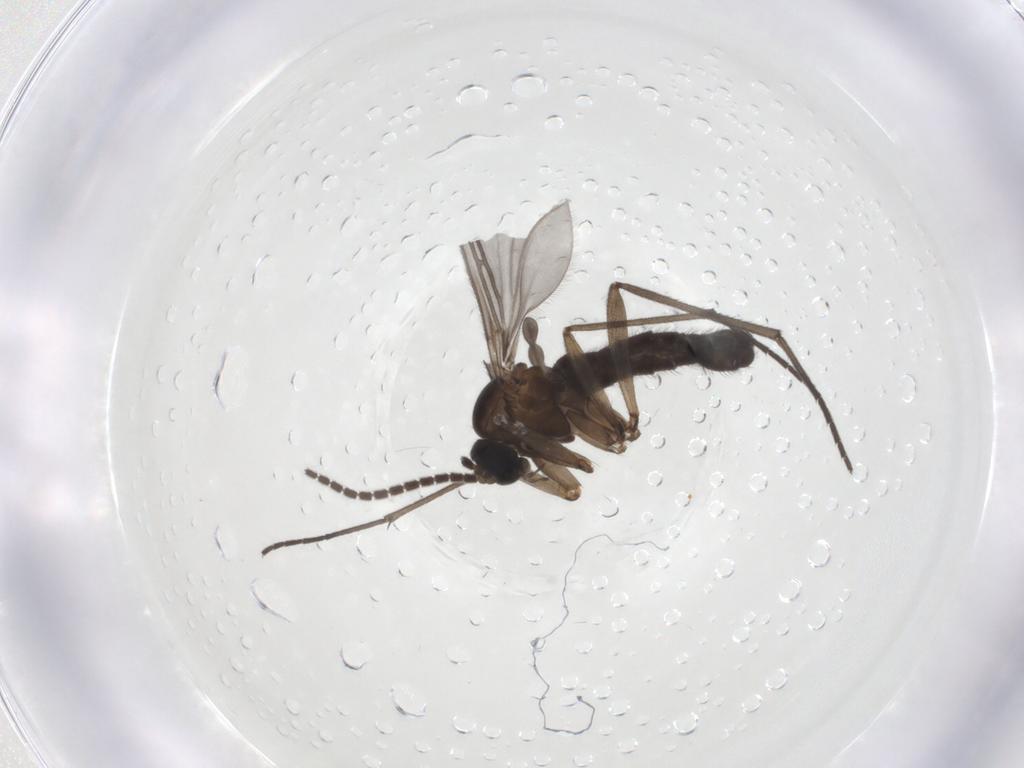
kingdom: Animalia
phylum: Arthropoda
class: Insecta
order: Diptera
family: Sciaridae
